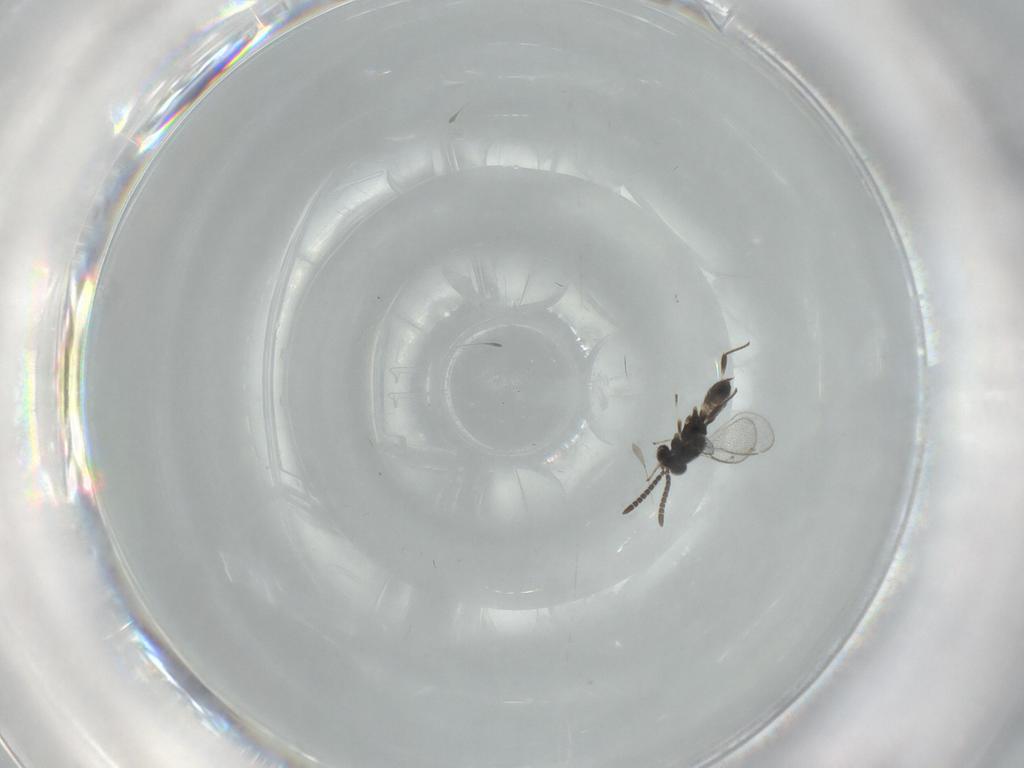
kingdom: Animalia
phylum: Arthropoda
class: Insecta
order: Hymenoptera
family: Eupelmidae
